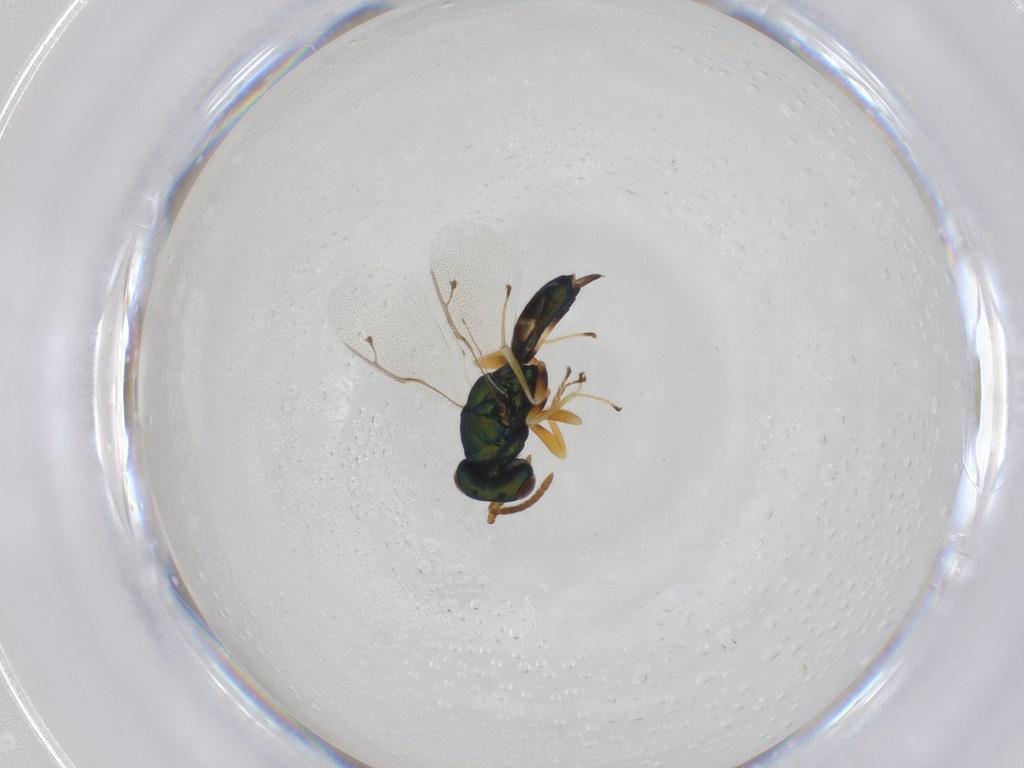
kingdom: Animalia
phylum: Arthropoda
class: Insecta
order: Hymenoptera
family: Pteromalidae
